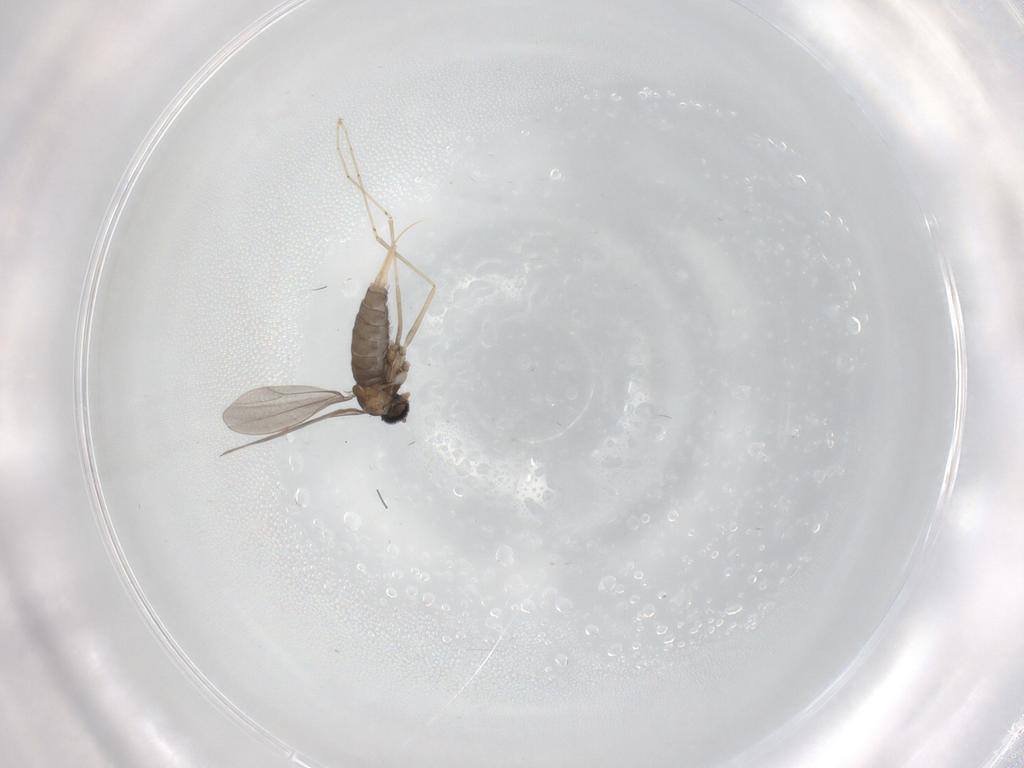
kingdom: Animalia
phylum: Arthropoda
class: Insecta
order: Diptera
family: Cecidomyiidae
